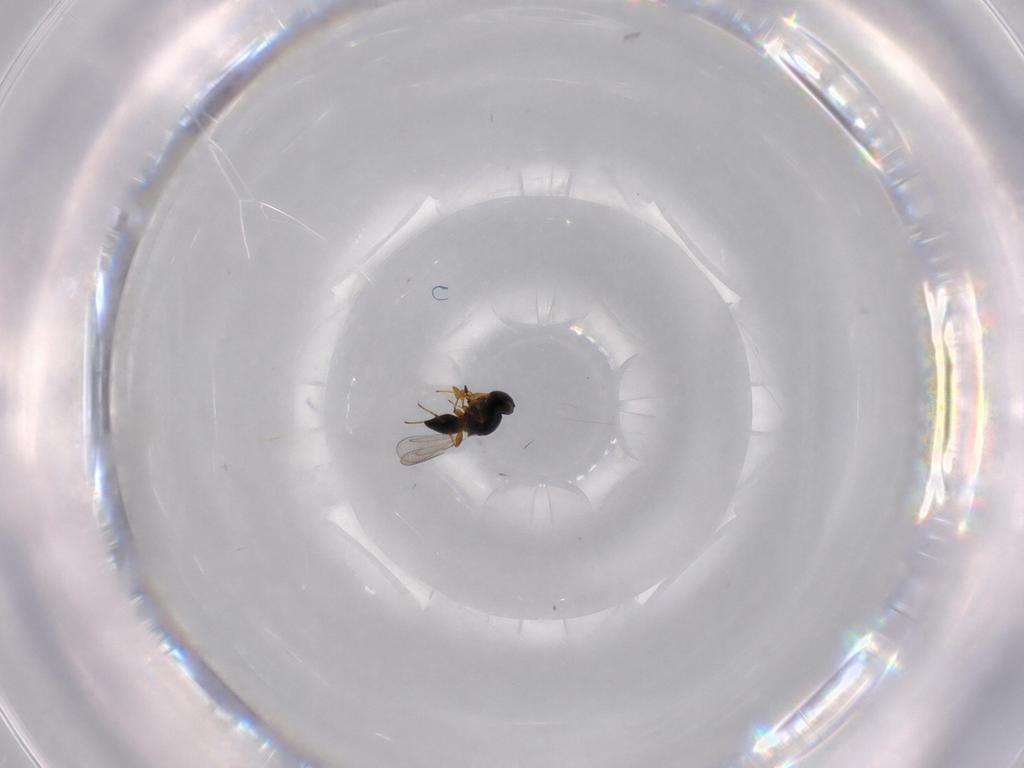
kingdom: Animalia
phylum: Arthropoda
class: Insecta
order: Hymenoptera
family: Platygastridae
